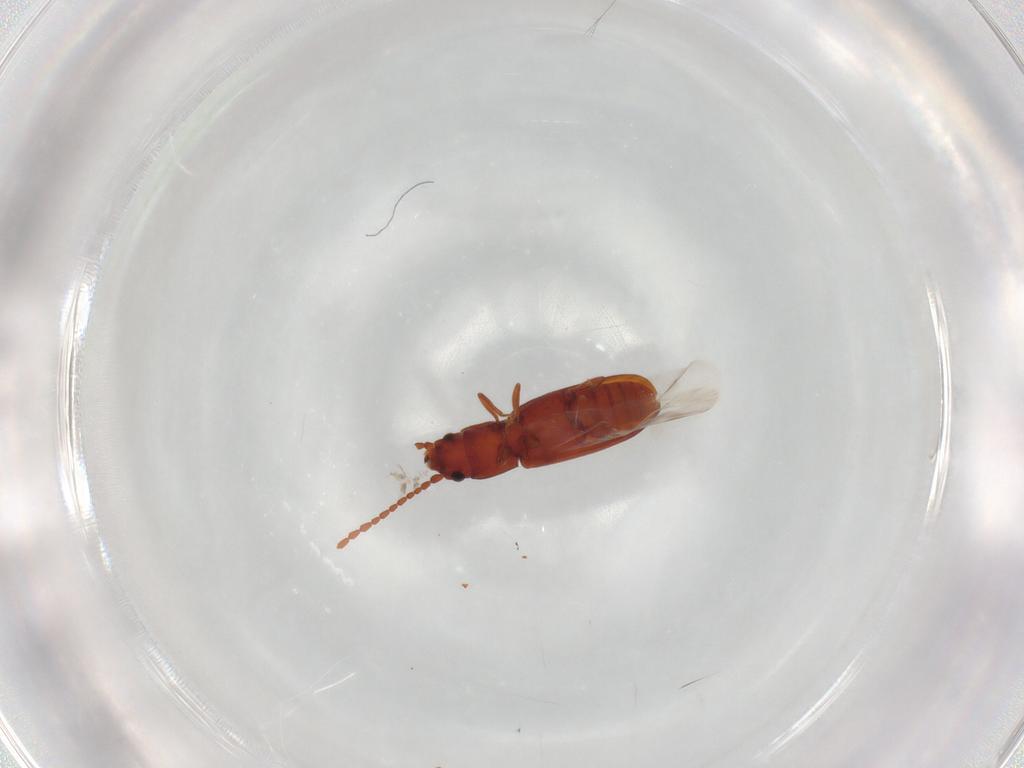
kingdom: Animalia
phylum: Arthropoda
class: Insecta
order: Coleoptera
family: Laemophloeidae
